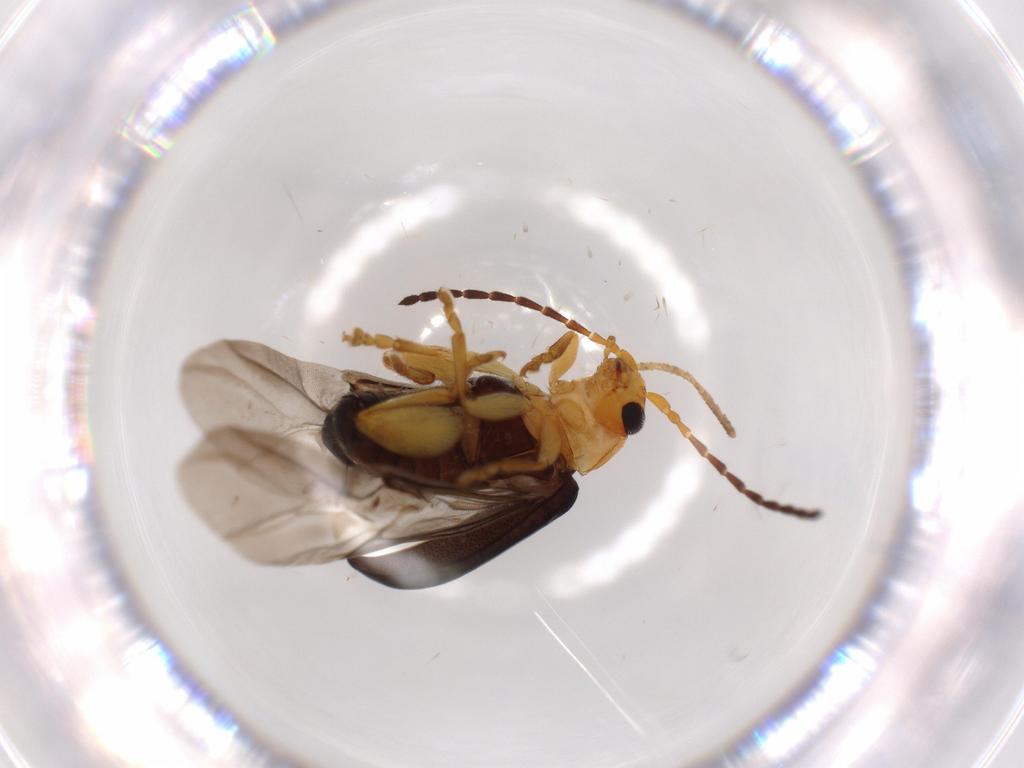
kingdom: Animalia
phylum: Arthropoda
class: Insecta
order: Coleoptera
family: Chrysomelidae
